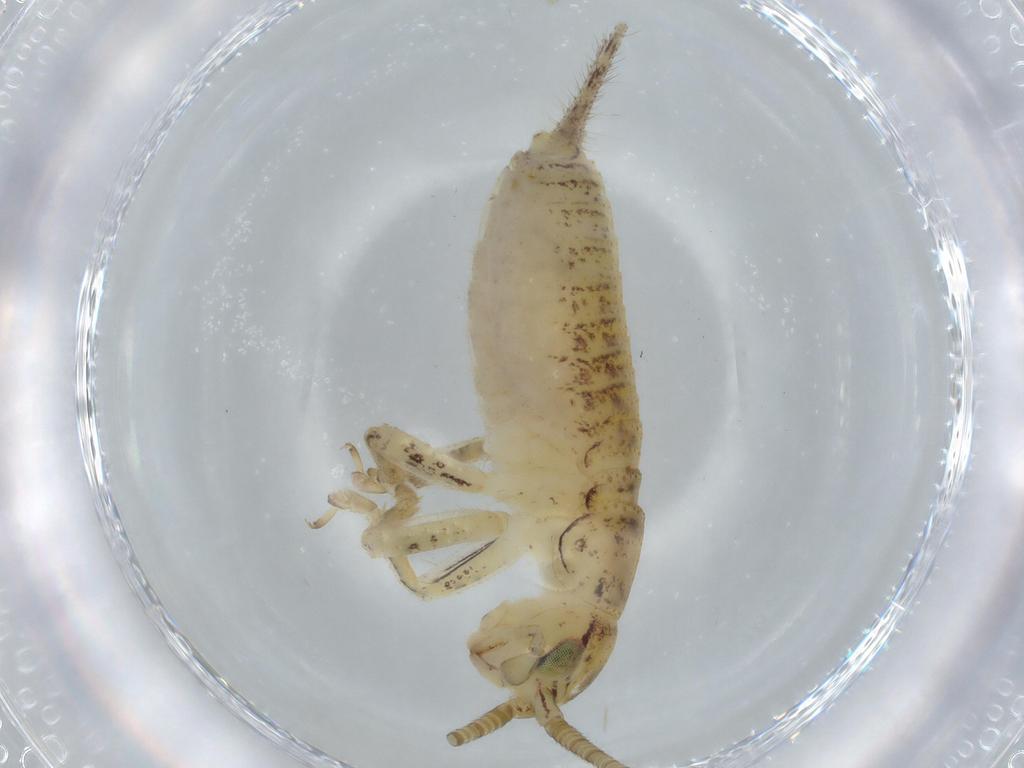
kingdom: Animalia
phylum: Arthropoda
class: Insecta
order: Orthoptera
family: Gryllidae
